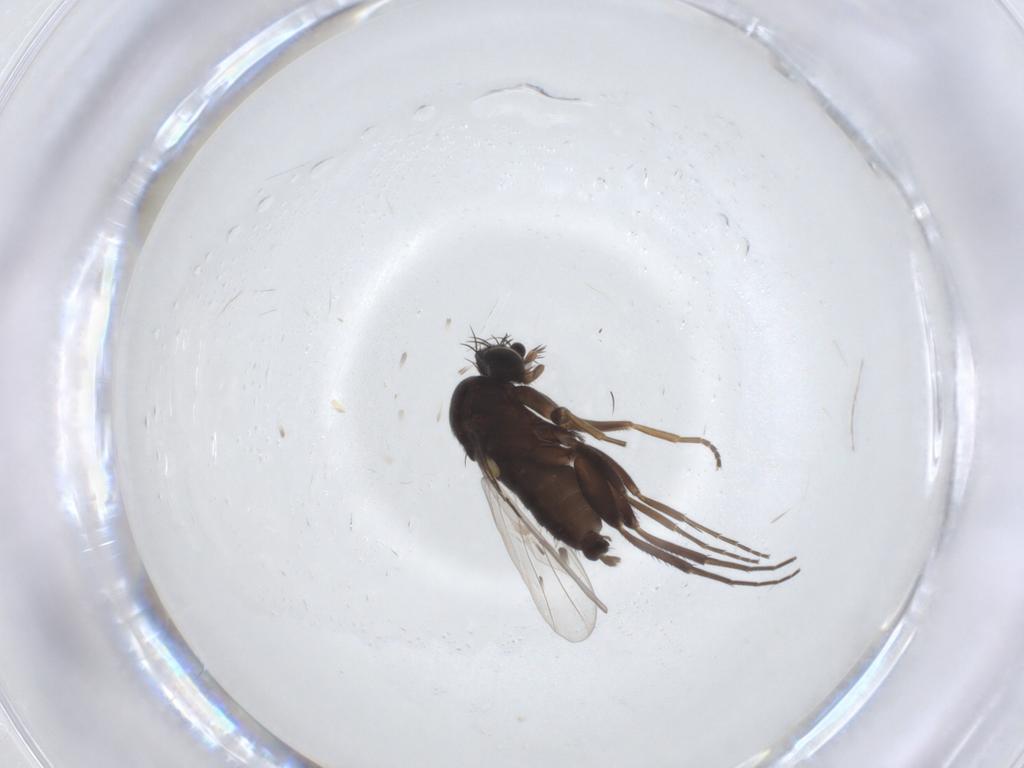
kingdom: Animalia
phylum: Arthropoda
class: Insecta
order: Diptera
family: Phoridae
